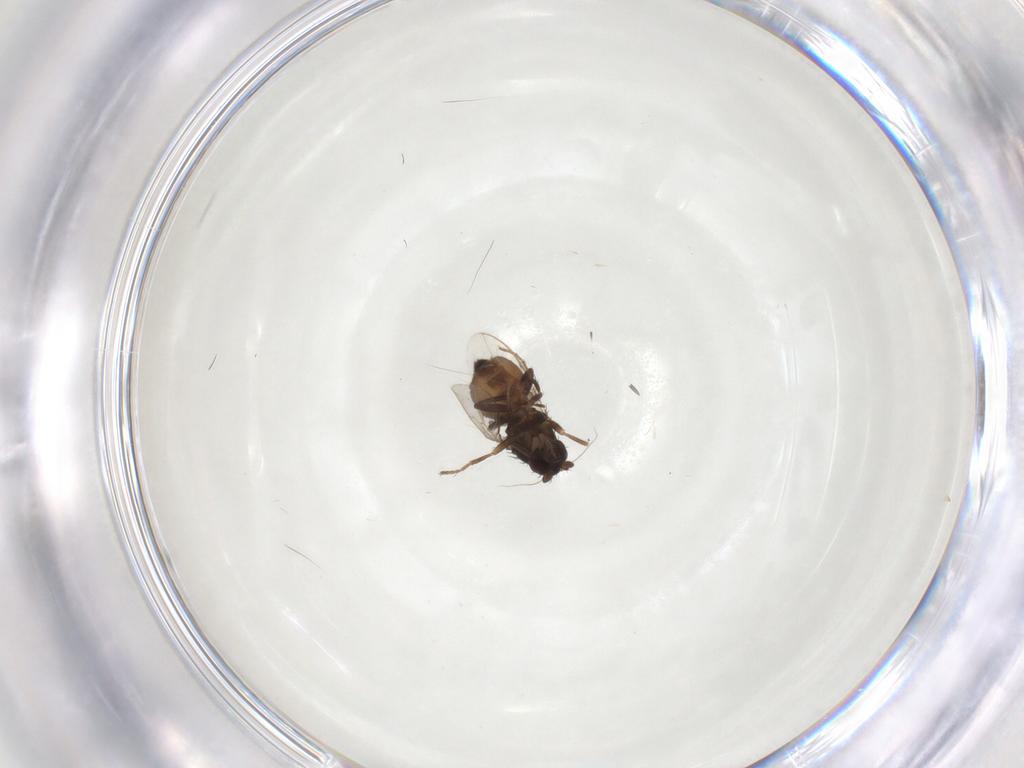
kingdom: Animalia
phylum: Arthropoda
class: Insecta
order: Diptera
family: Sphaeroceridae
